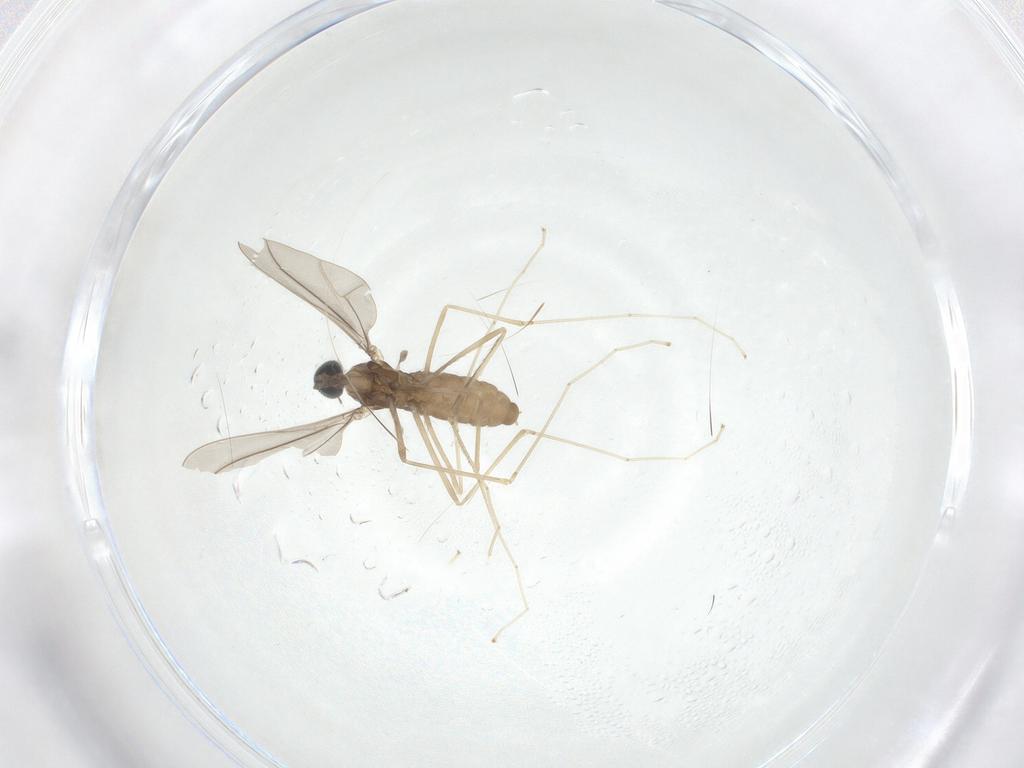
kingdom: Animalia
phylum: Arthropoda
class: Insecta
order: Diptera
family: Cecidomyiidae
